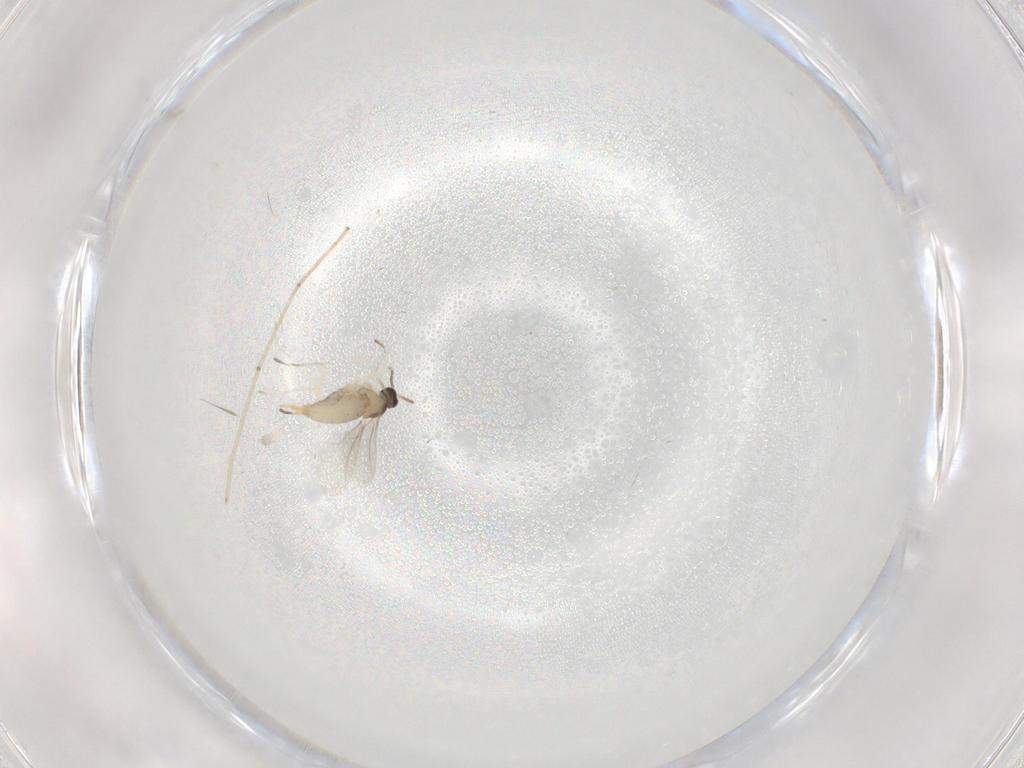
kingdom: Animalia
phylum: Arthropoda
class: Insecta
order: Diptera
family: Cecidomyiidae
